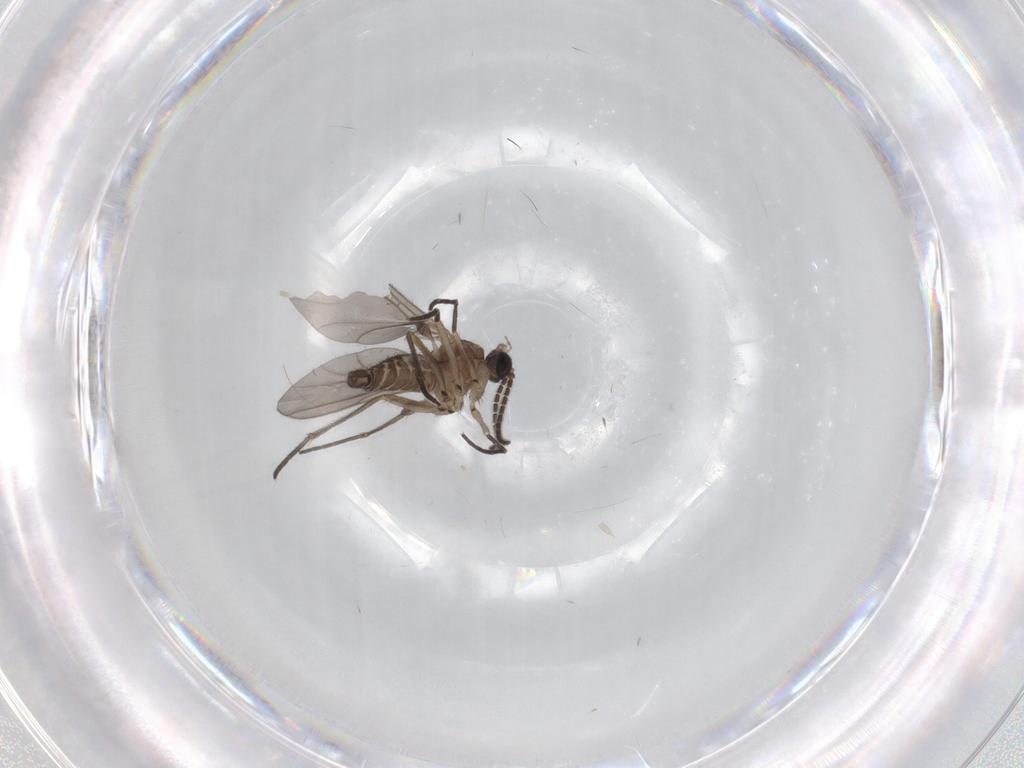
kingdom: Animalia
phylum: Arthropoda
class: Insecta
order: Diptera
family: Sciaridae
